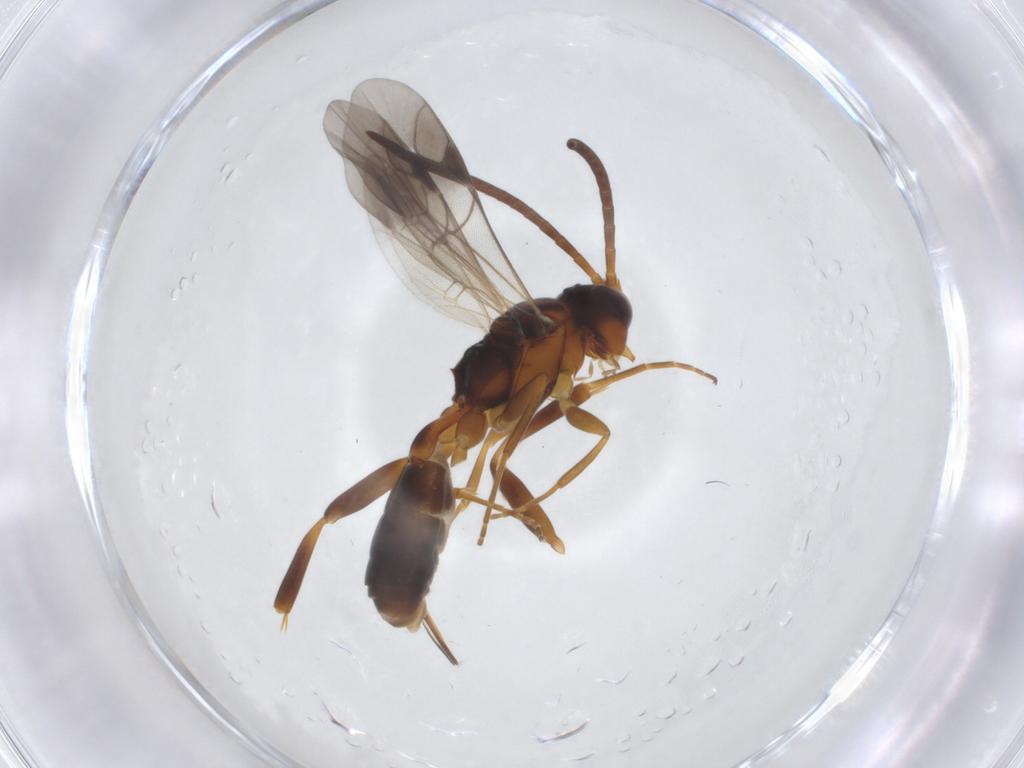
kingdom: Animalia
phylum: Arthropoda
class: Insecta
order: Hymenoptera
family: Ichneumonidae
